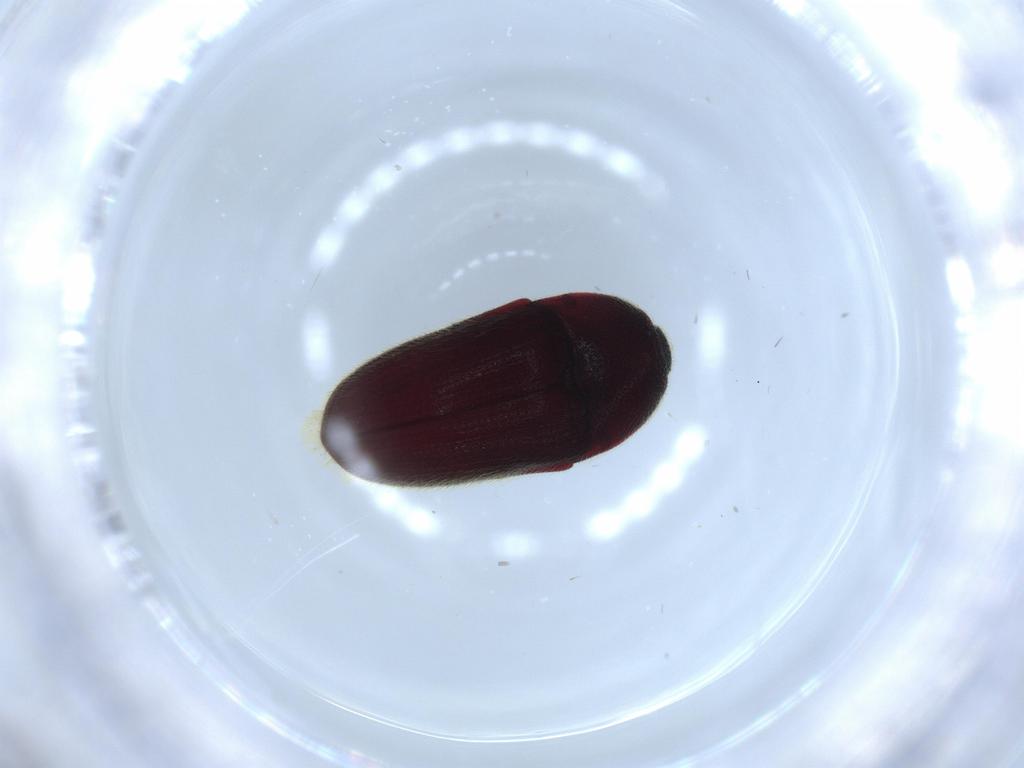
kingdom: Animalia
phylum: Arthropoda
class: Insecta
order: Coleoptera
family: Throscidae
